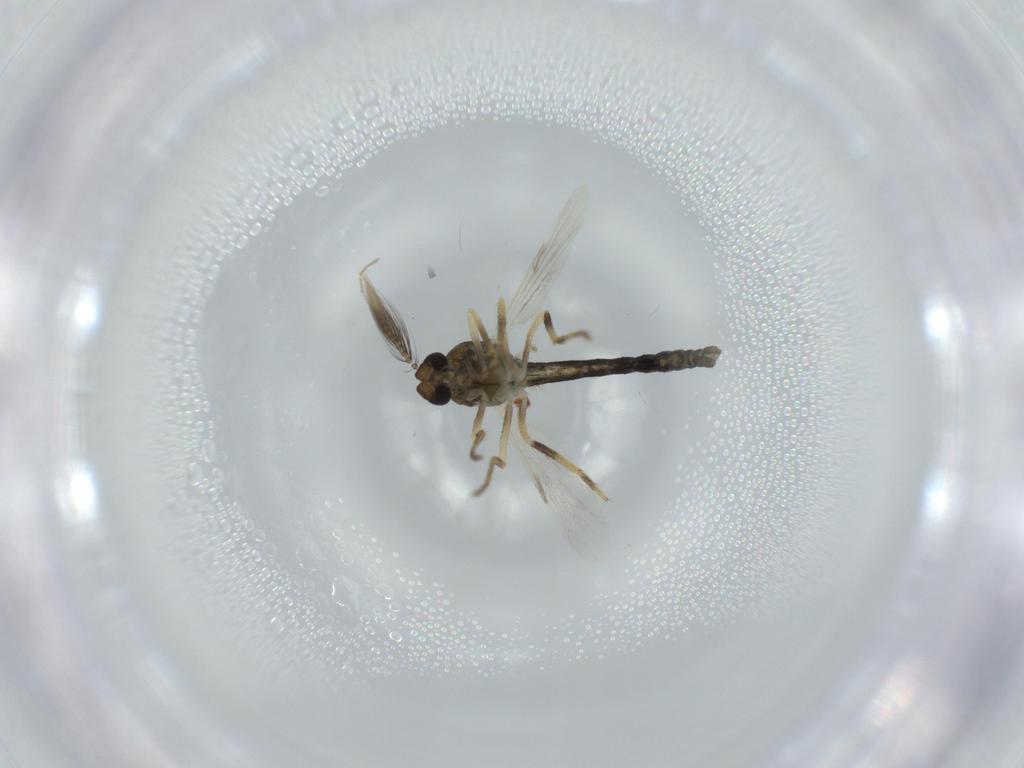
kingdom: Animalia
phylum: Arthropoda
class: Insecta
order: Diptera
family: Ceratopogonidae
